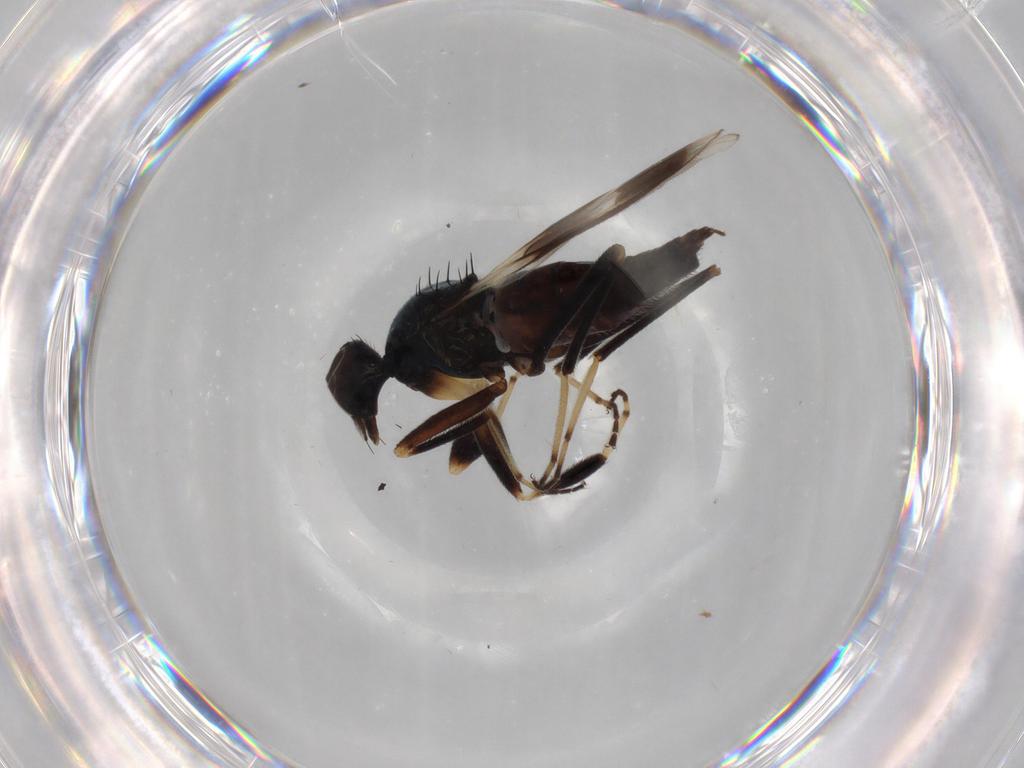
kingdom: Animalia
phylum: Arthropoda
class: Insecta
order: Diptera
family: Hybotidae
